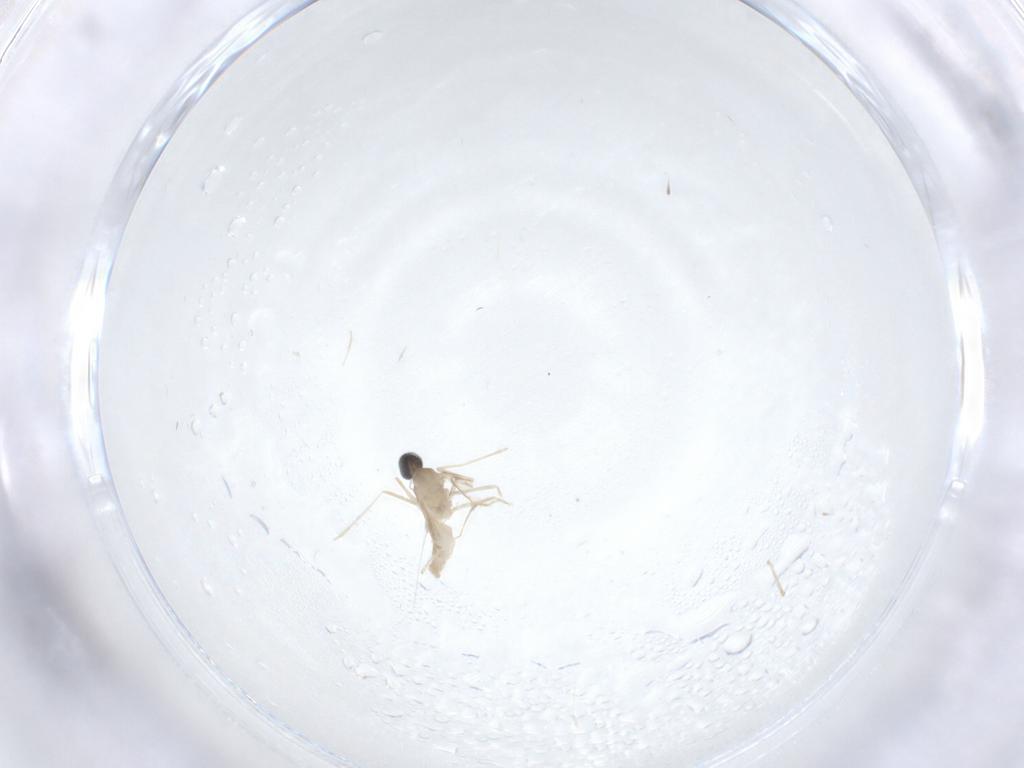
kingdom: Animalia
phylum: Arthropoda
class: Insecta
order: Diptera
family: Cecidomyiidae
